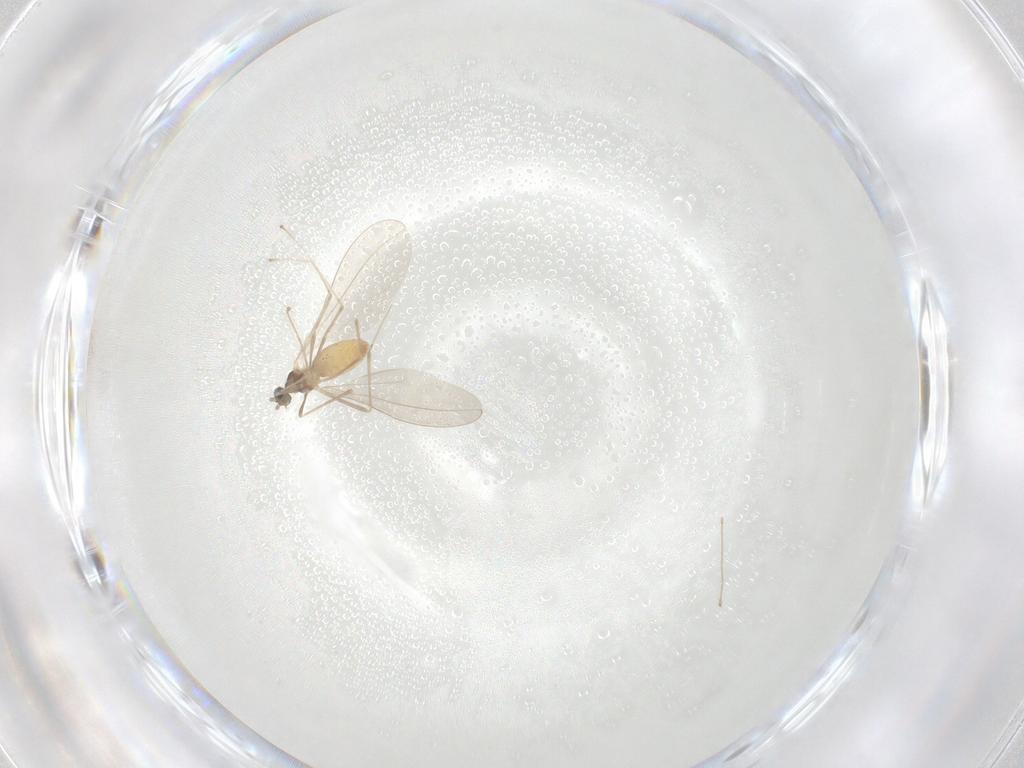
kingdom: Animalia
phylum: Arthropoda
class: Insecta
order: Diptera
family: Cecidomyiidae
